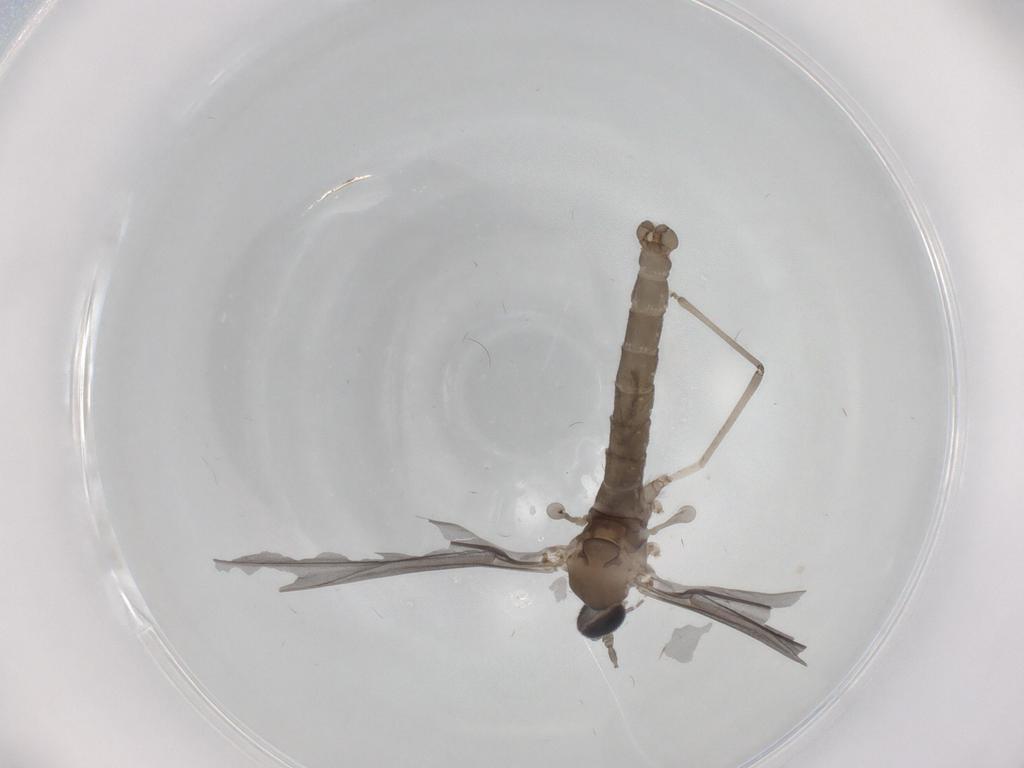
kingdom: Animalia
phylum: Arthropoda
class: Insecta
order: Diptera
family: Cecidomyiidae
